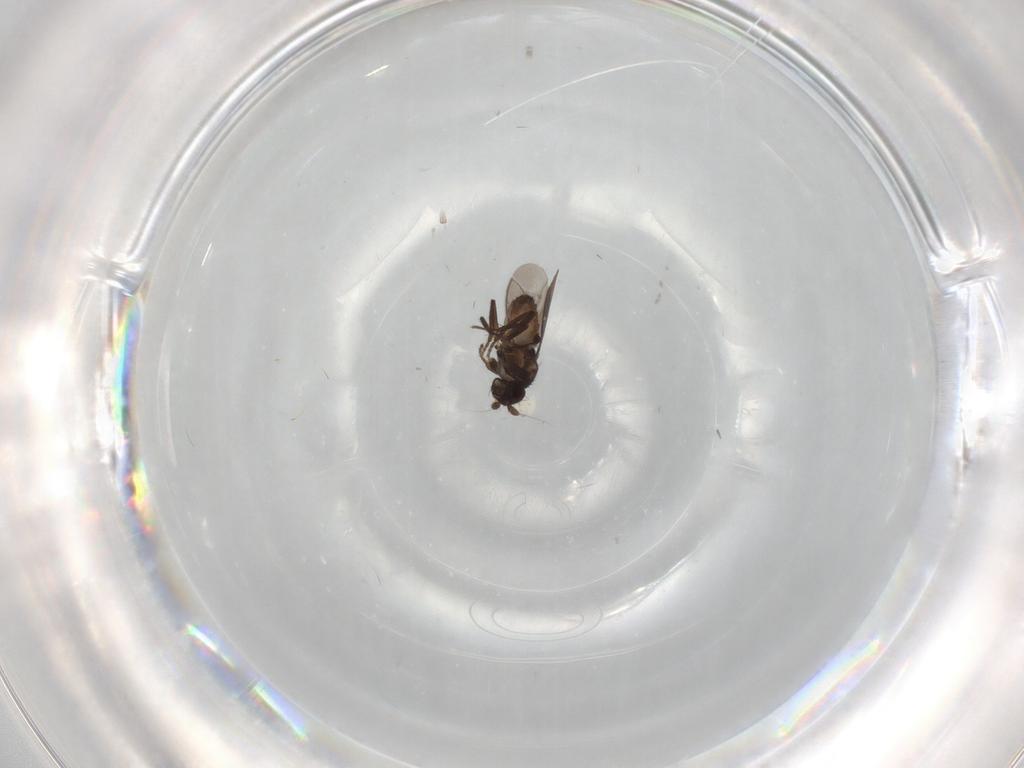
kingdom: Animalia
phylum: Arthropoda
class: Insecta
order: Diptera
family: Sphaeroceridae
